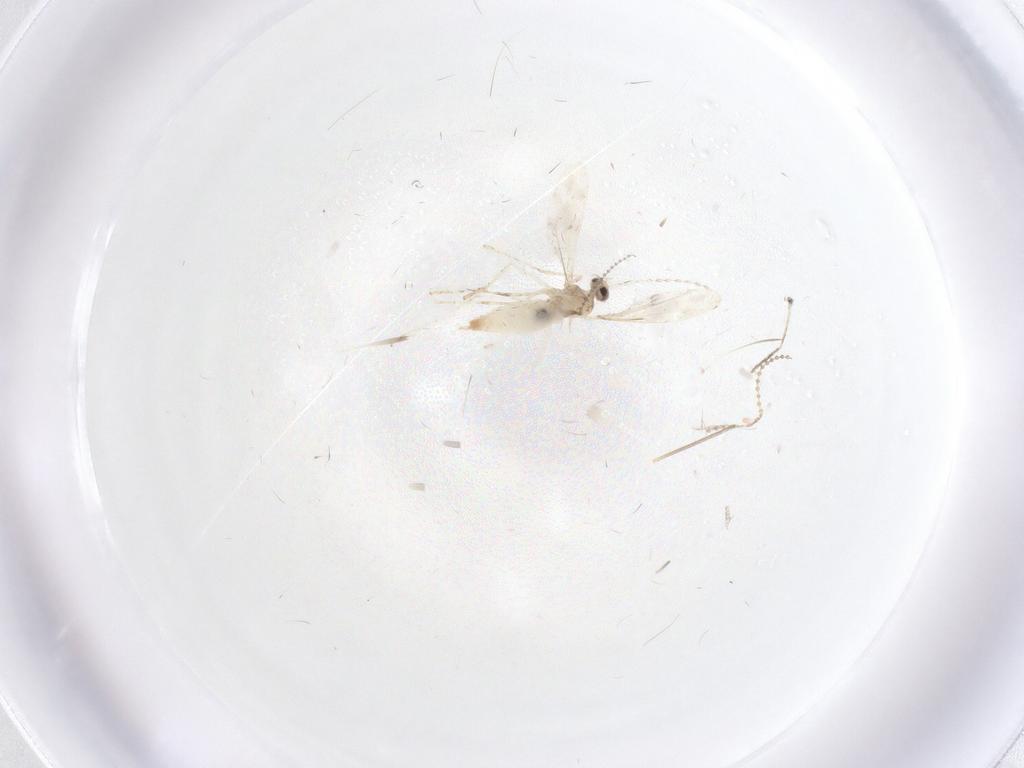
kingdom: Animalia
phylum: Arthropoda
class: Insecta
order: Diptera
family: Cecidomyiidae
